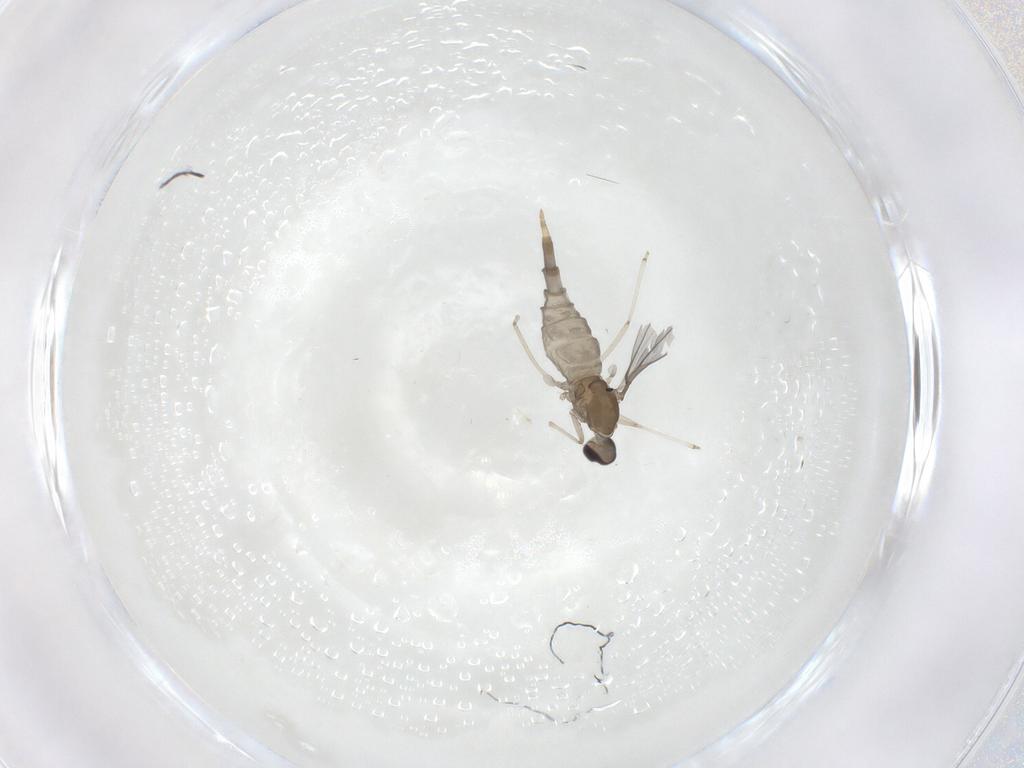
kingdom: Animalia
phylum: Arthropoda
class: Insecta
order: Diptera
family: Cecidomyiidae
